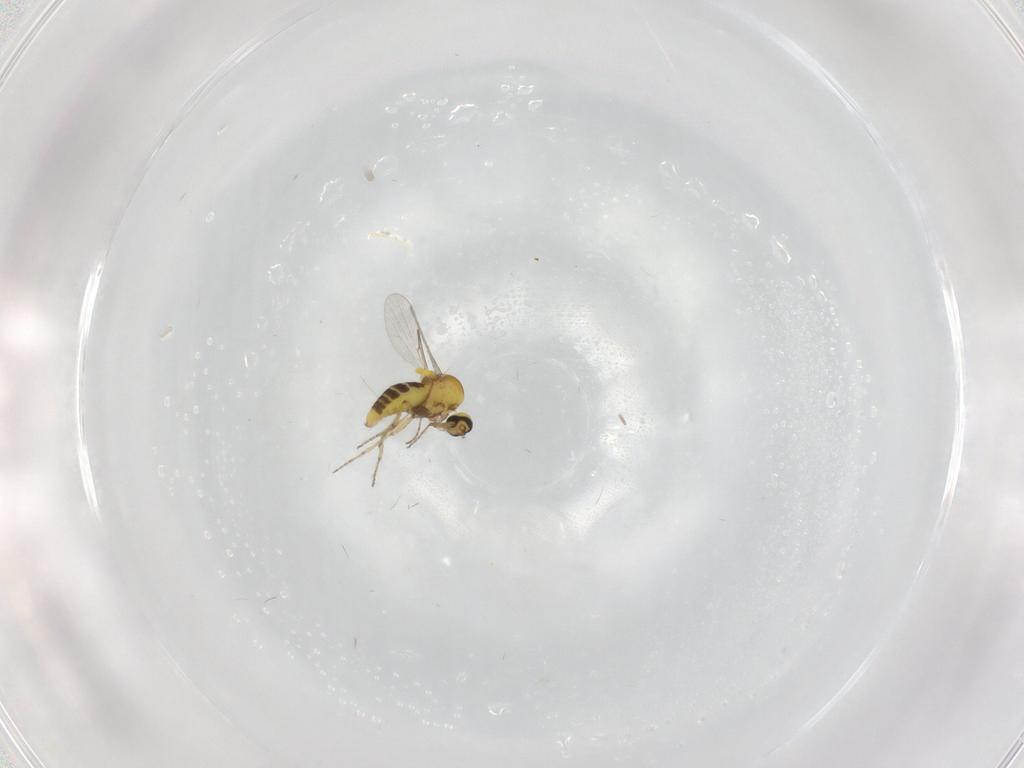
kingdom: Animalia
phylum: Arthropoda
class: Insecta
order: Diptera
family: Ceratopogonidae
